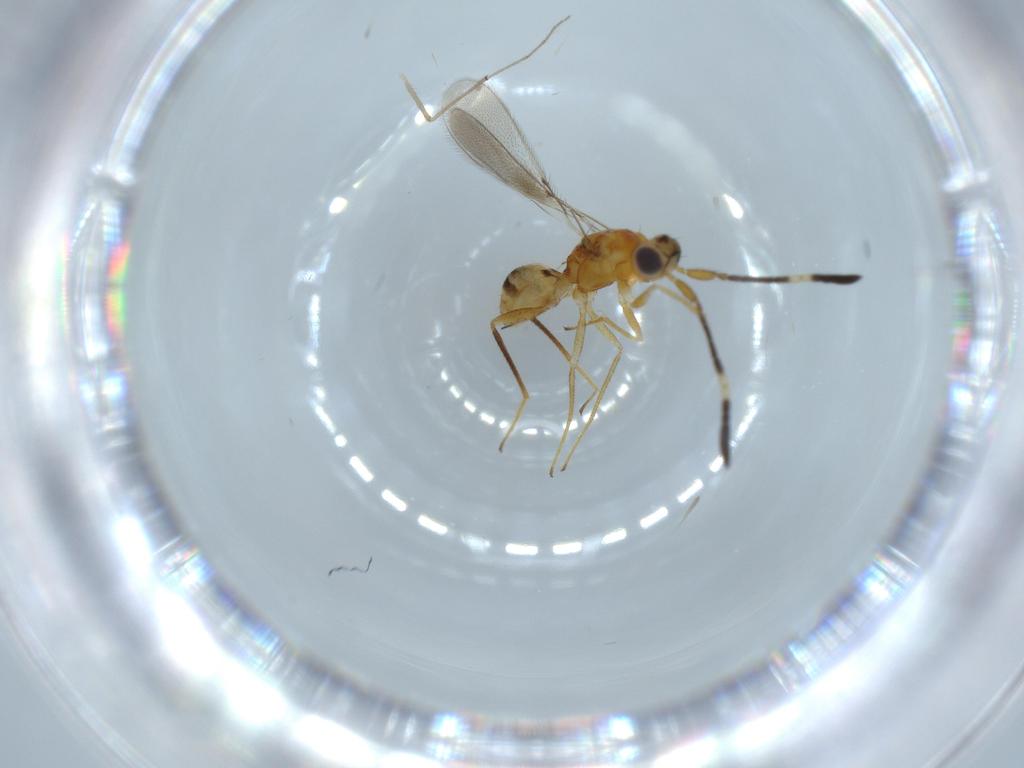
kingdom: Animalia
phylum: Arthropoda
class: Insecta
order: Hymenoptera
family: Mymaridae
